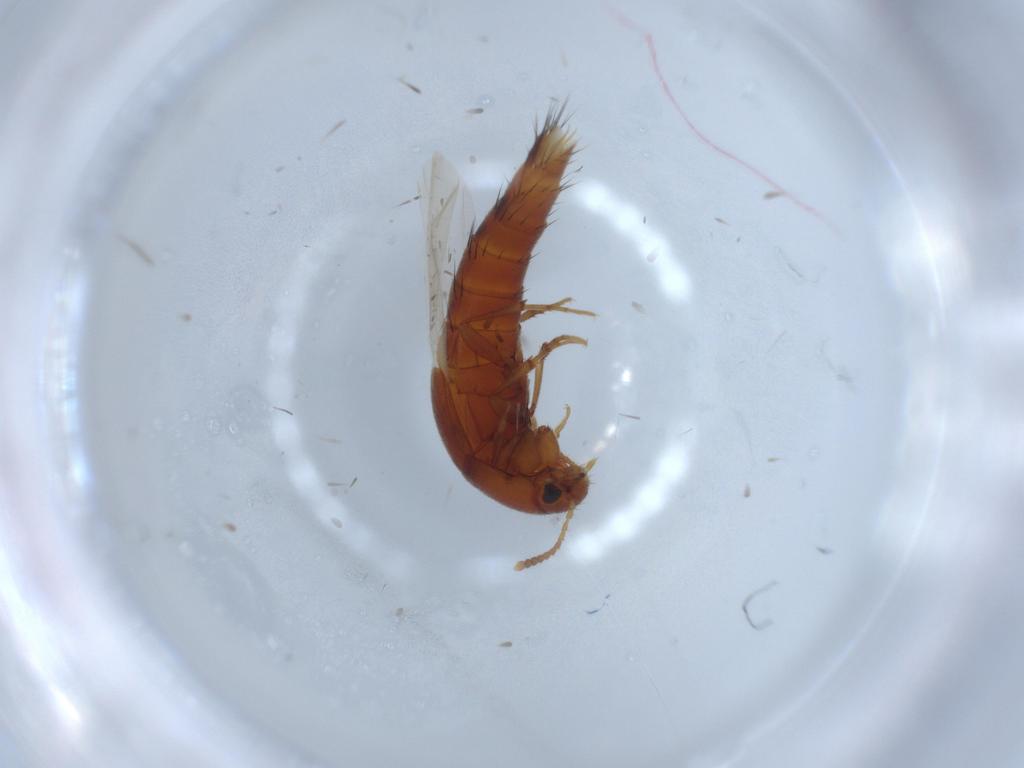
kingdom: Animalia
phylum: Arthropoda
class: Insecta
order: Coleoptera
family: Staphylinidae
